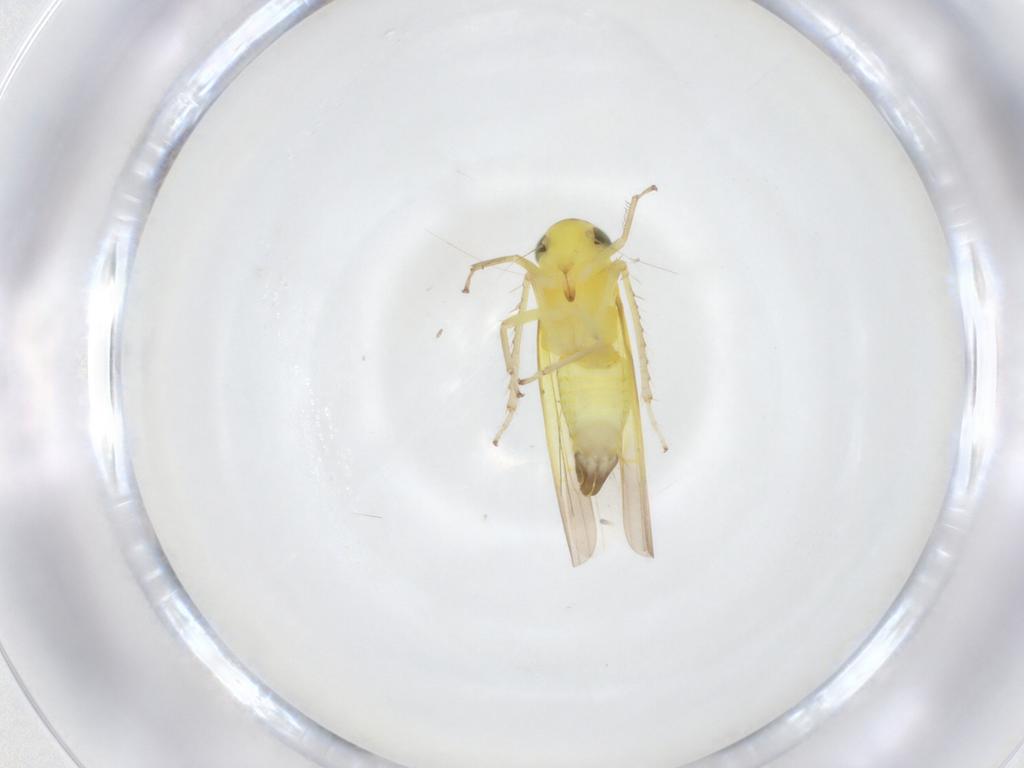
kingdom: Animalia
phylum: Arthropoda
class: Insecta
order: Hemiptera
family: Cicadellidae
